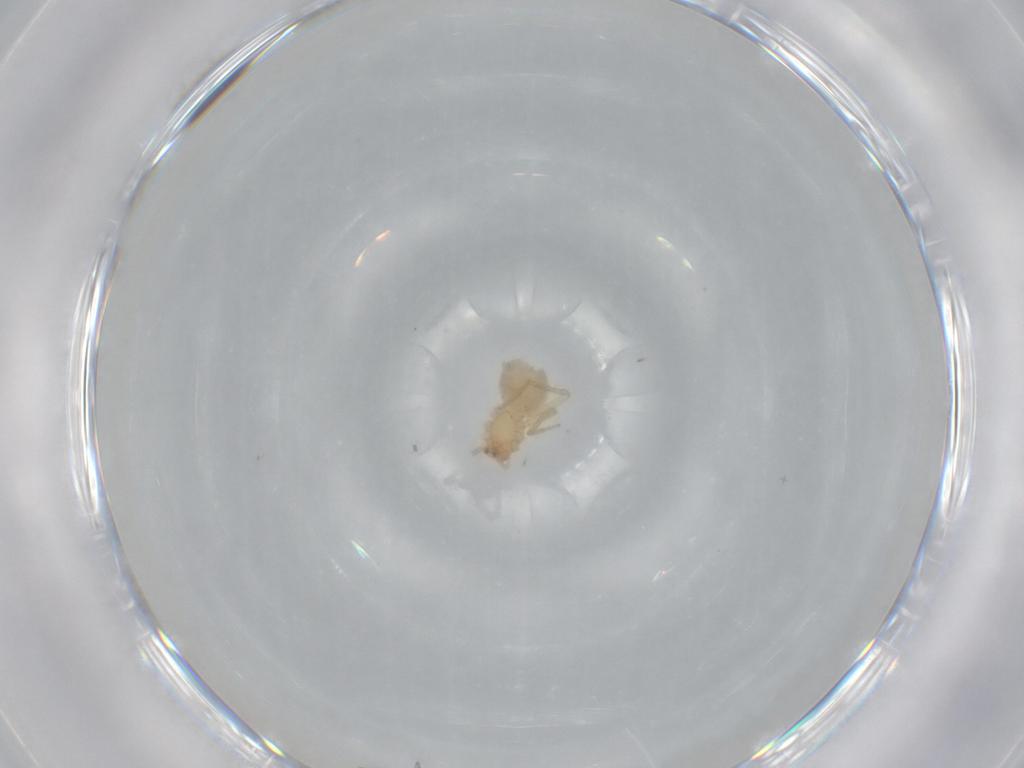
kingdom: Animalia
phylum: Arthropoda
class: Arachnida
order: Araneae
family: Ochyroceratidae
